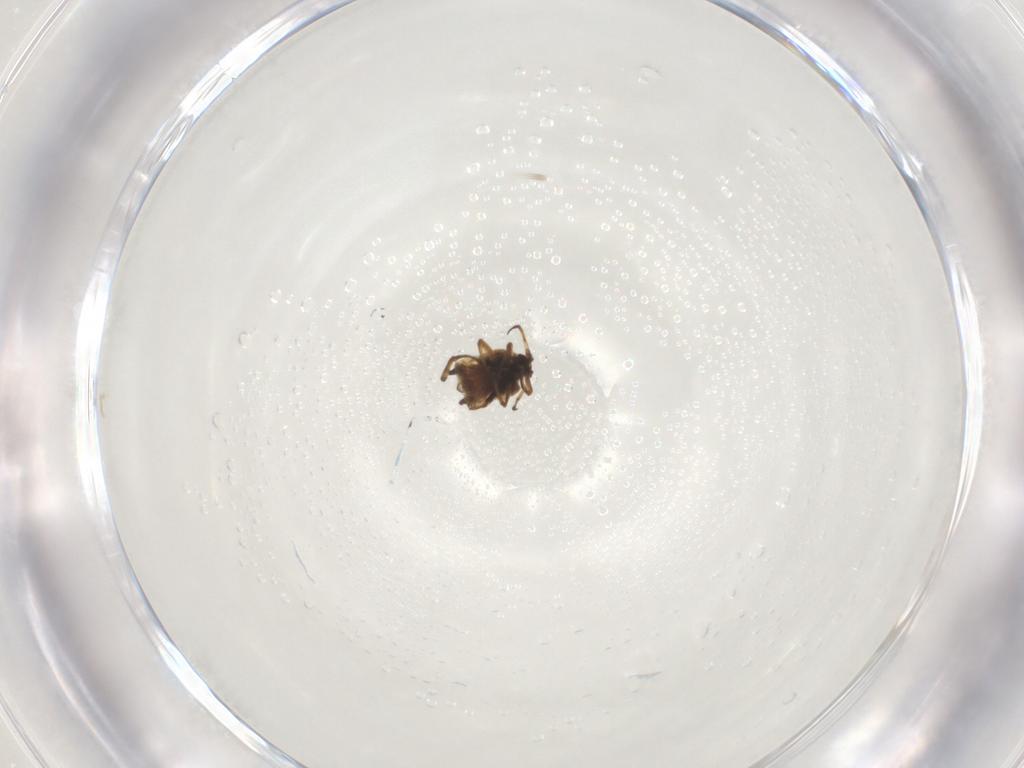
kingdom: Animalia
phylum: Arthropoda
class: Insecta
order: Hemiptera
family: Aphididae
